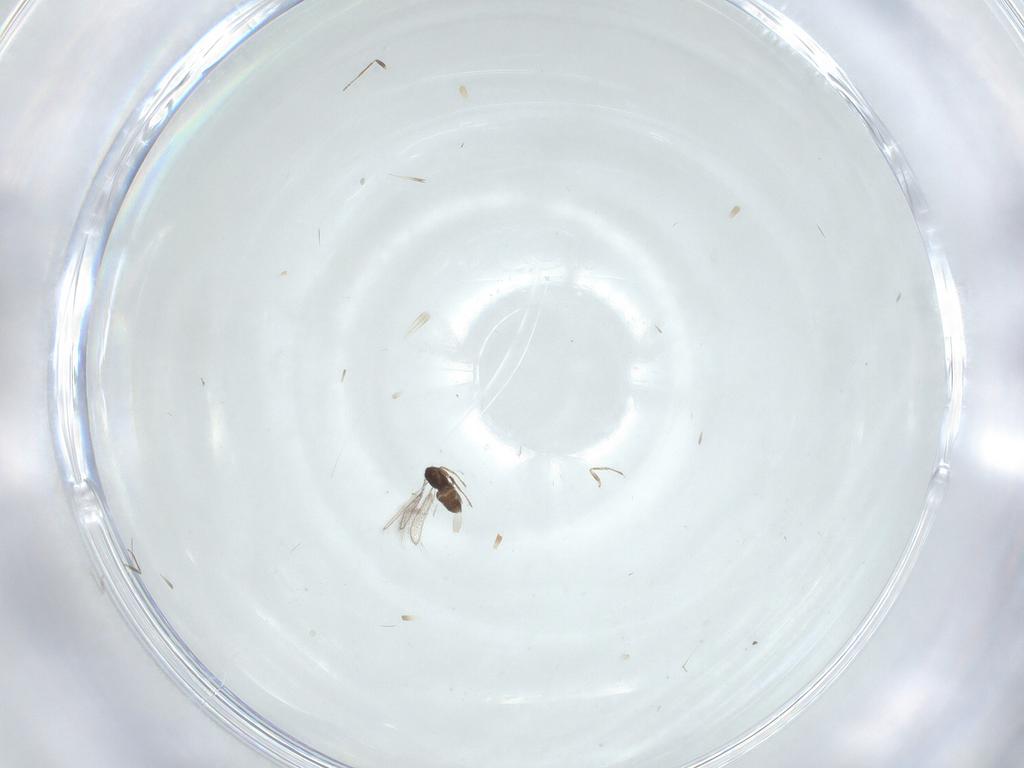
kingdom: Animalia
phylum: Arthropoda
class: Insecta
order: Hymenoptera
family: Mymaridae
